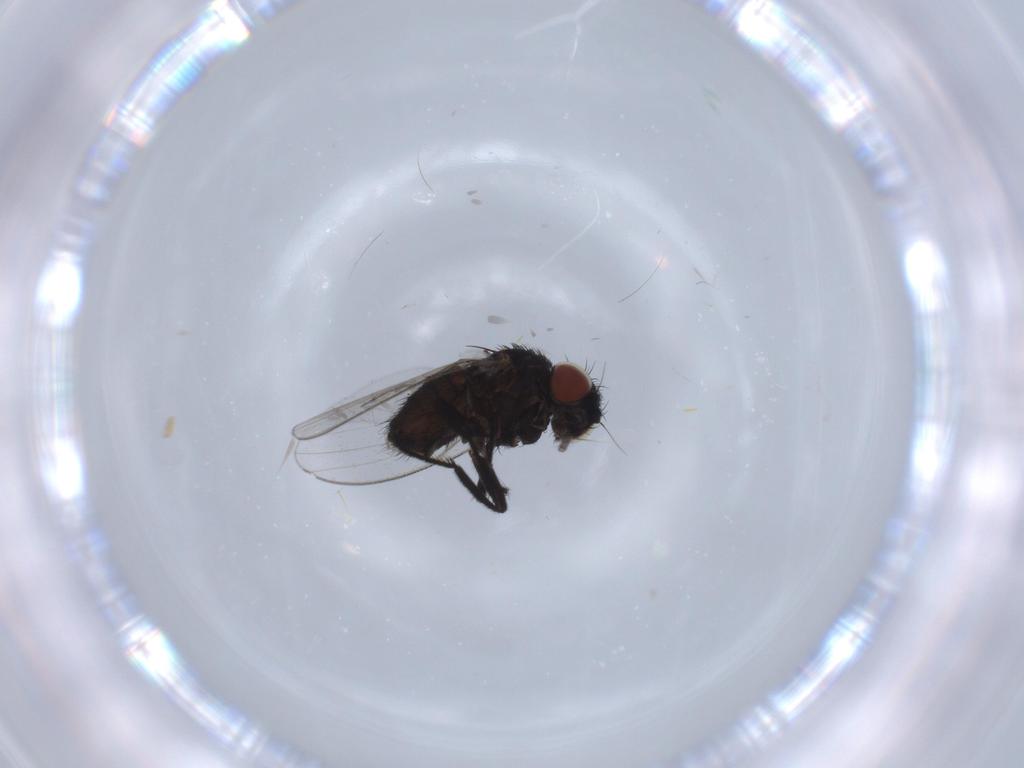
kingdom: Animalia
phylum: Arthropoda
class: Insecta
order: Diptera
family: Milichiidae
